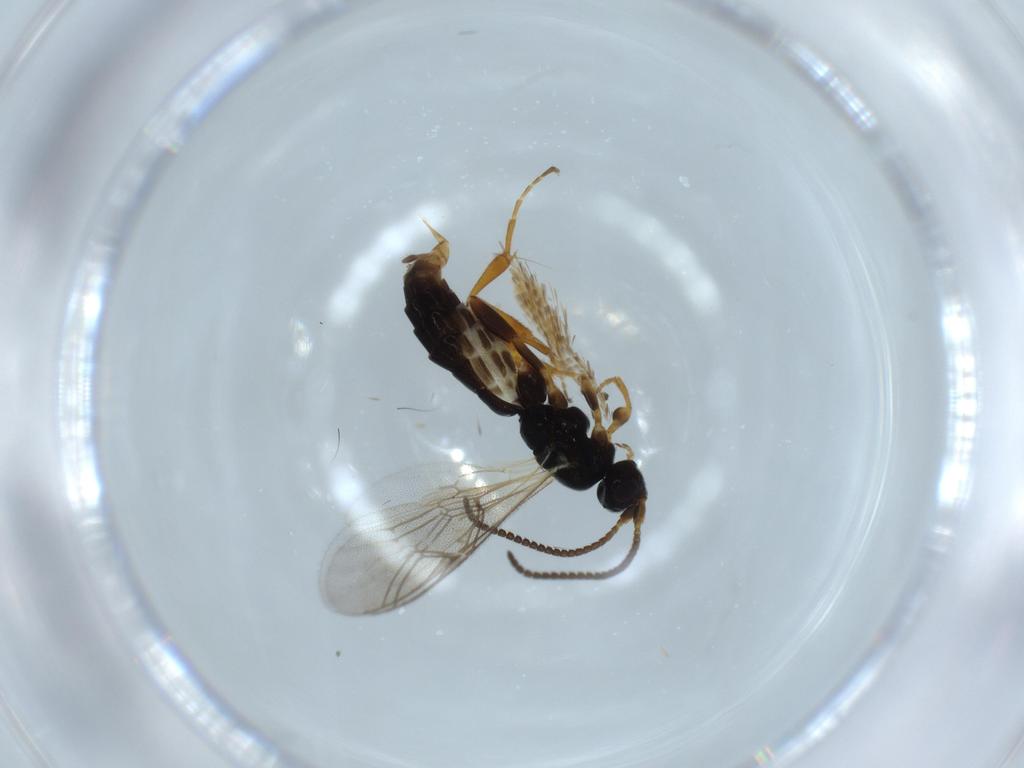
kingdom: Animalia
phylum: Arthropoda
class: Insecta
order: Hymenoptera
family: Ichneumonidae
